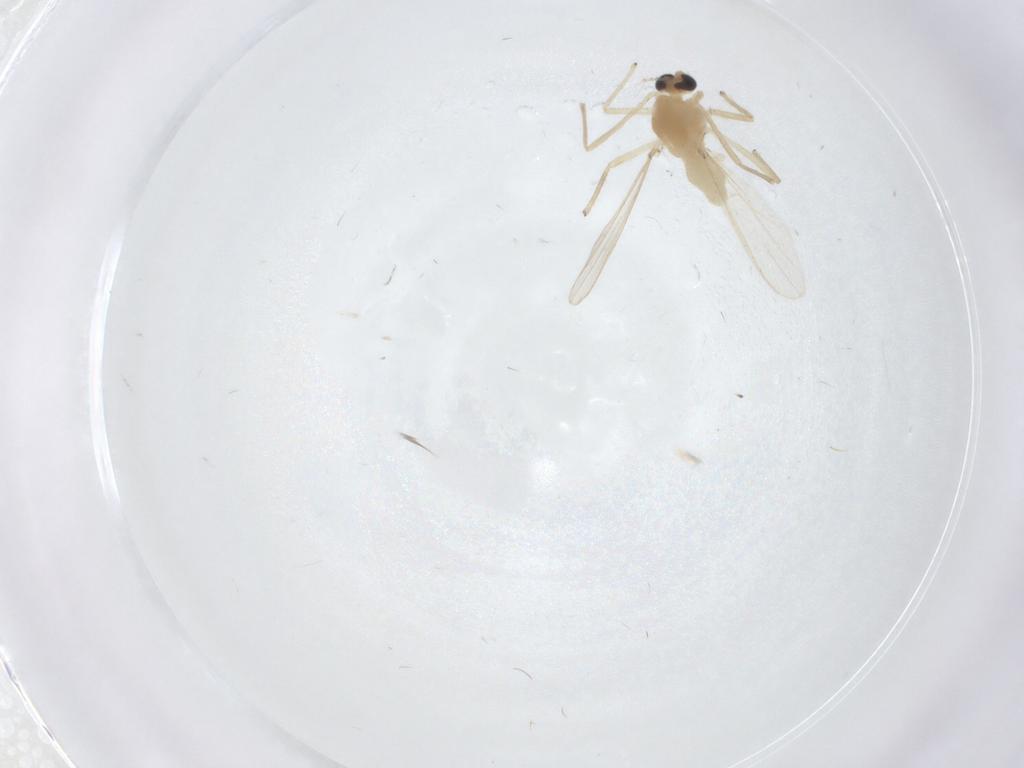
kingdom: Animalia
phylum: Arthropoda
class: Insecta
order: Diptera
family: Chironomidae
